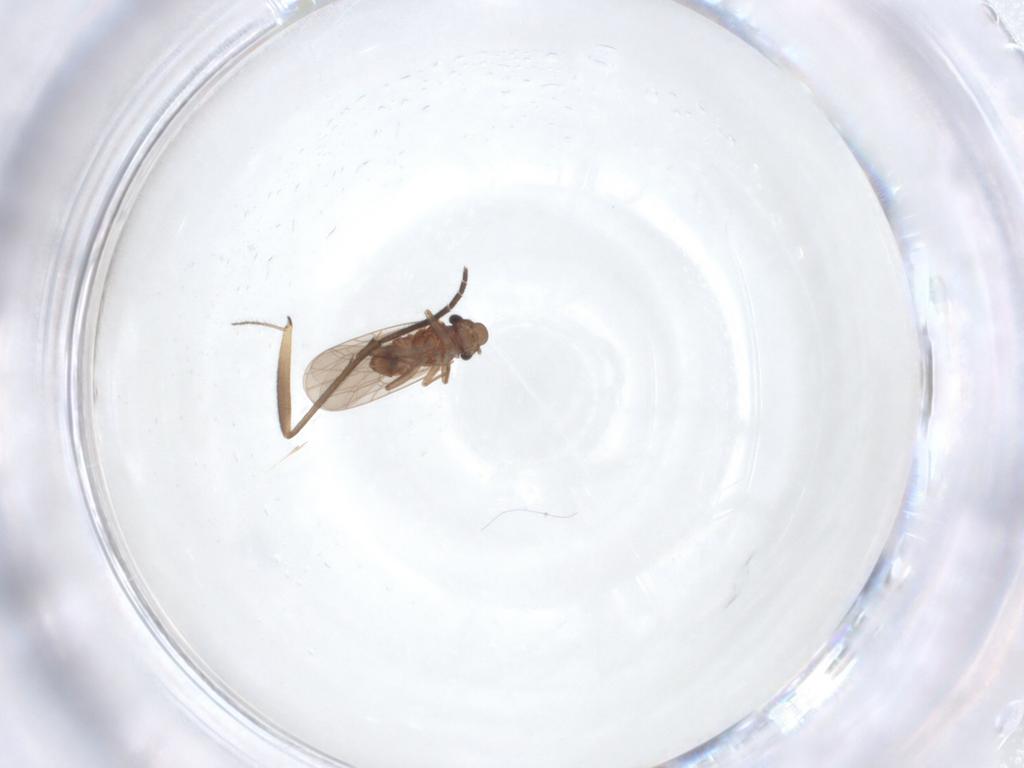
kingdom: Animalia
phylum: Arthropoda
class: Insecta
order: Diptera
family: Sciaridae
